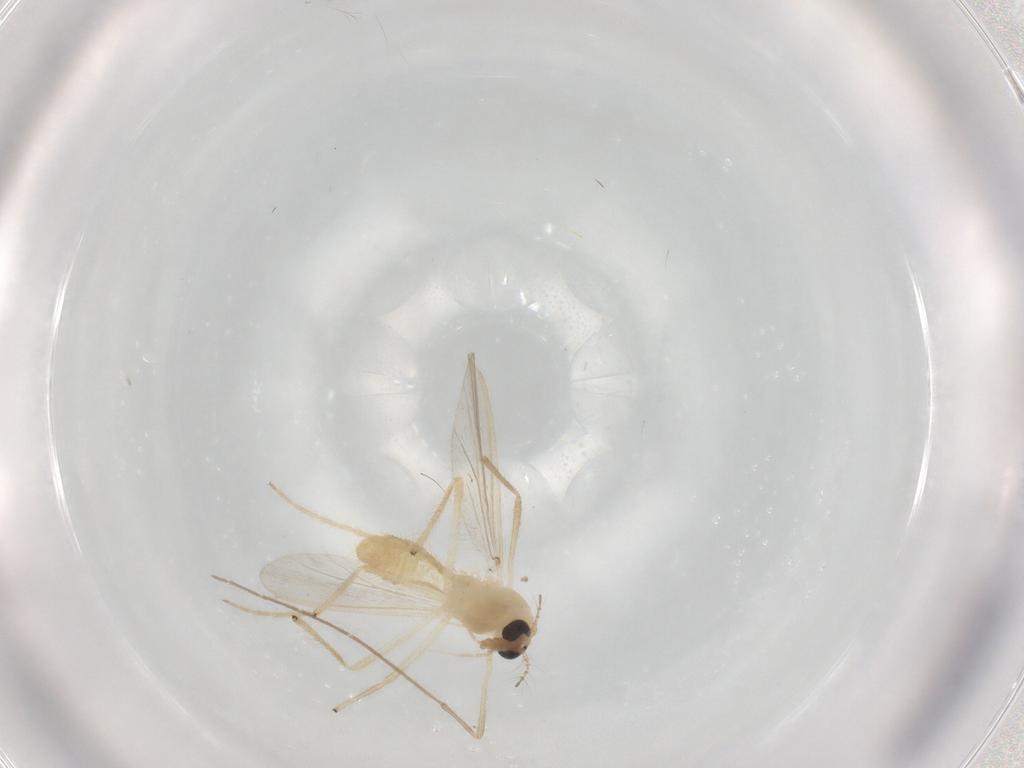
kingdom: Animalia
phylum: Arthropoda
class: Insecta
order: Diptera
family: Chironomidae
